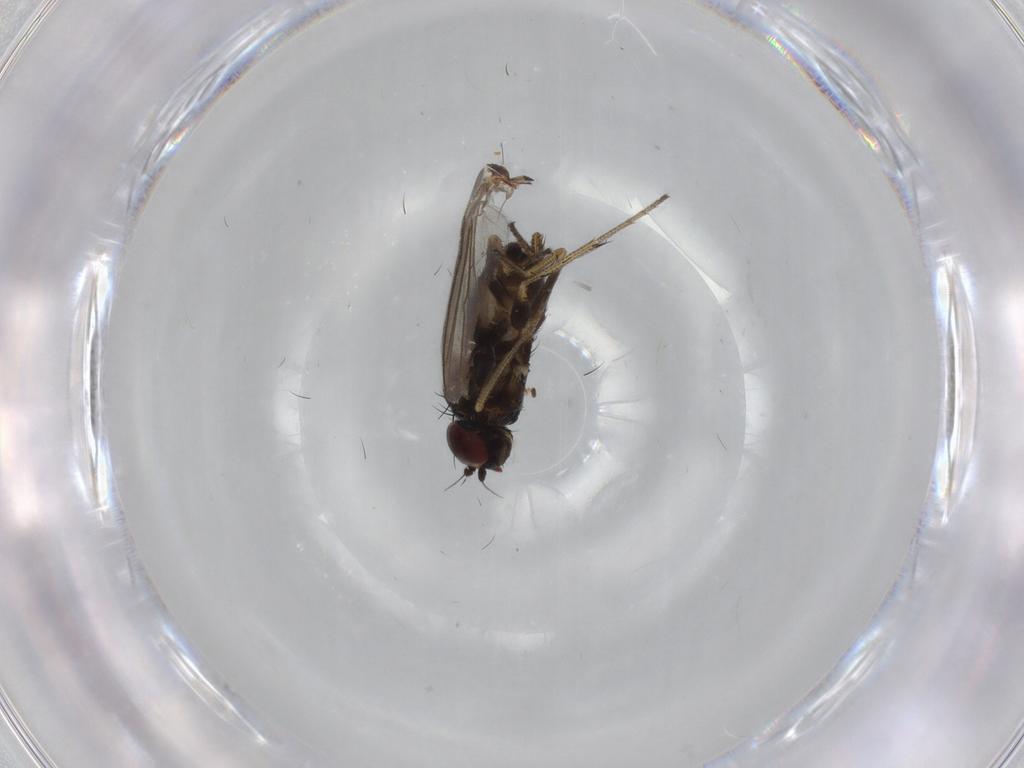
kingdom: Animalia
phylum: Arthropoda
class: Insecta
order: Diptera
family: Dolichopodidae
